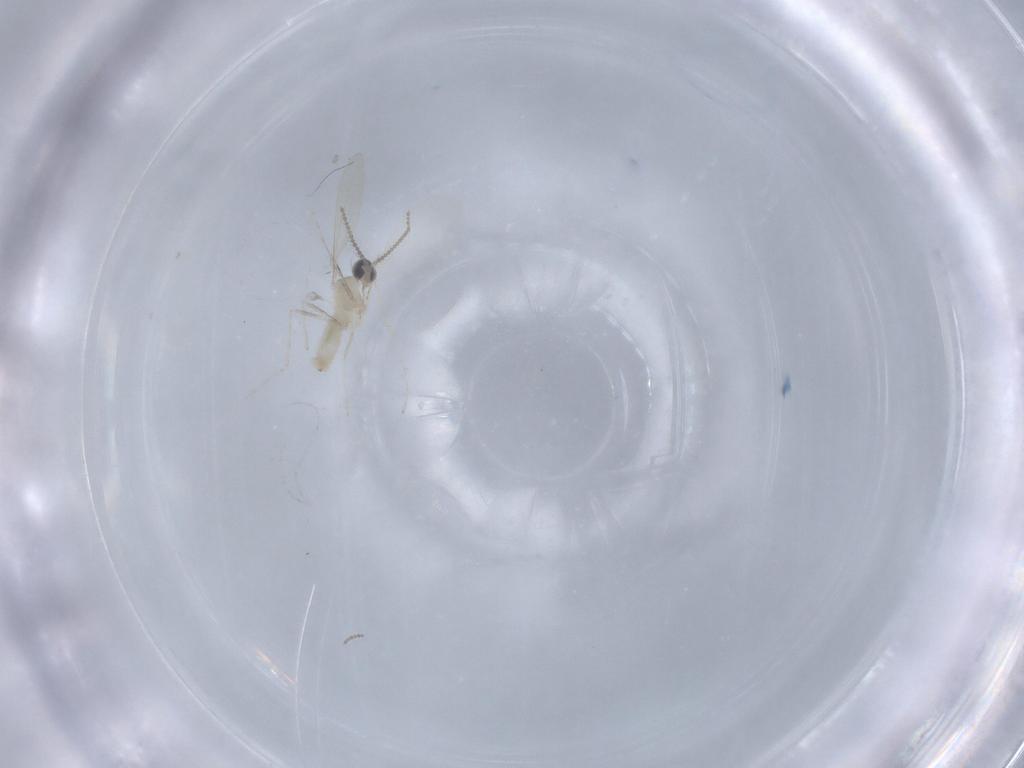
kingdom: Animalia
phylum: Arthropoda
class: Insecta
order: Diptera
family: Cecidomyiidae
